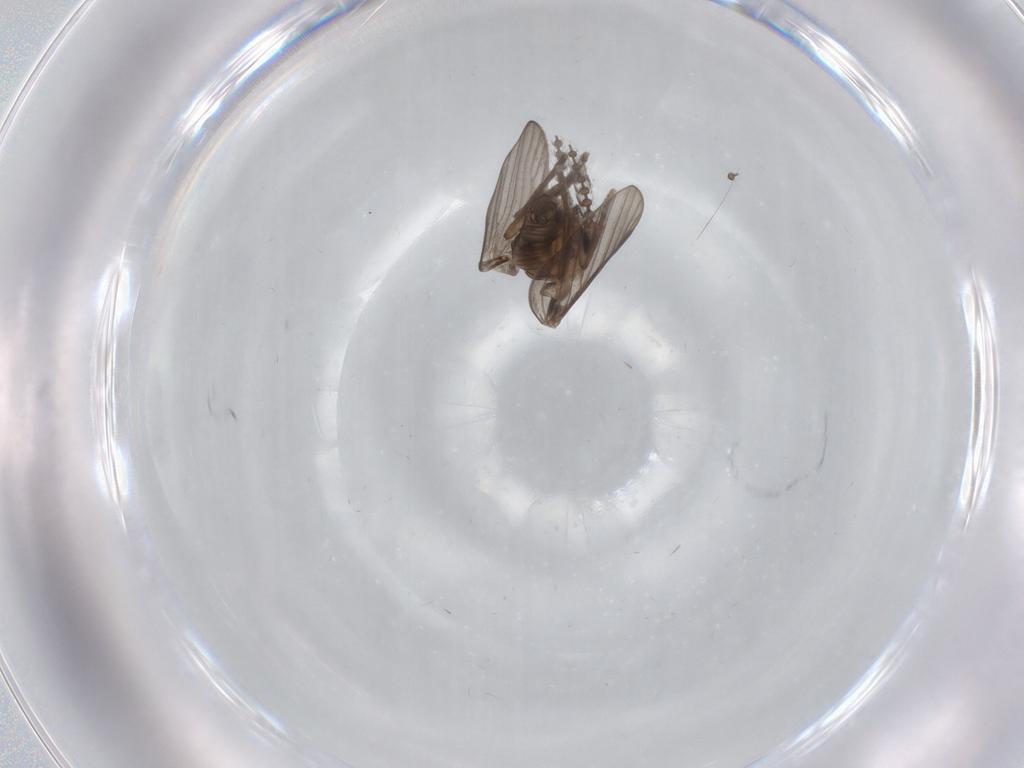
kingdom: Animalia
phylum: Arthropoda
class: Insecta
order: Diptera
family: Psychodidae
